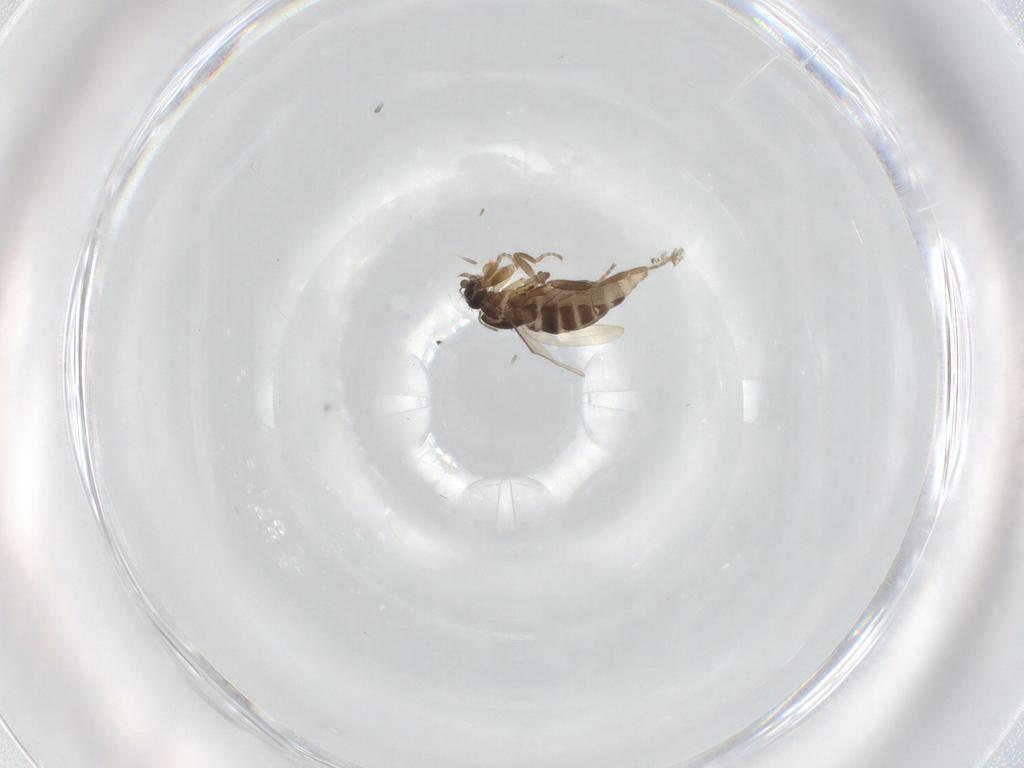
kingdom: Animalia
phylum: Arthropoda
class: Insecta
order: Diptera
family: Phoridae
